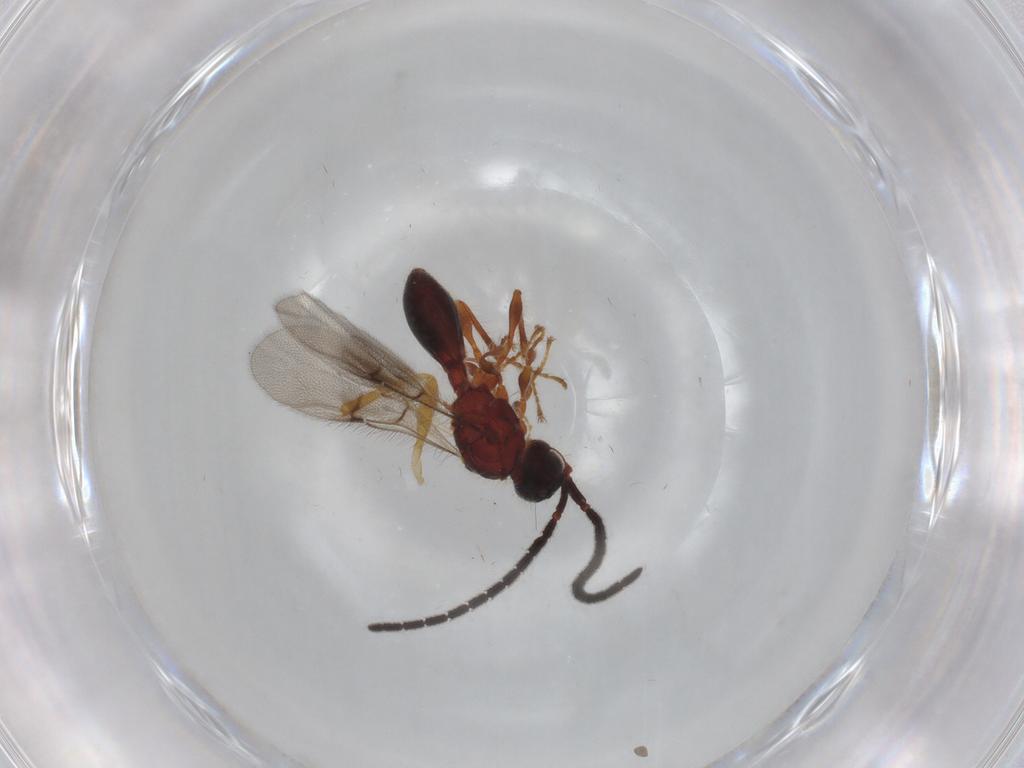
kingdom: Animalia
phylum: Arthropoda
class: Insecta
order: Hymenoptera
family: Diapriidae
